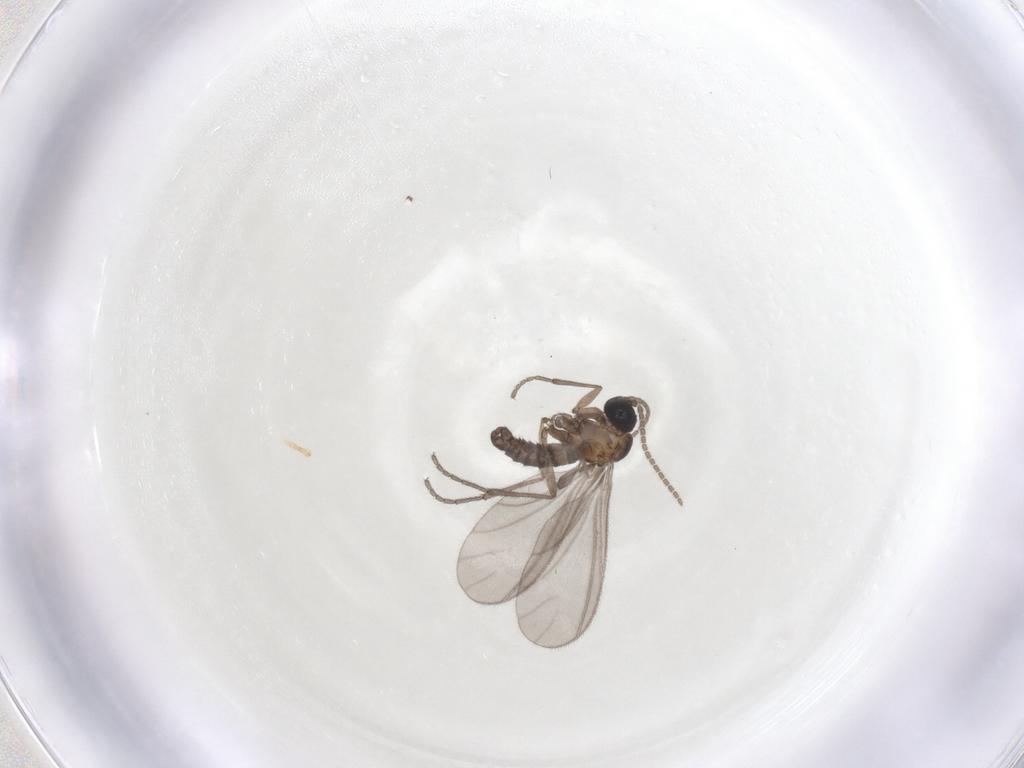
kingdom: Animalia
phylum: Arthropoda
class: Insecta
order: Diptera
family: Sciaridae
